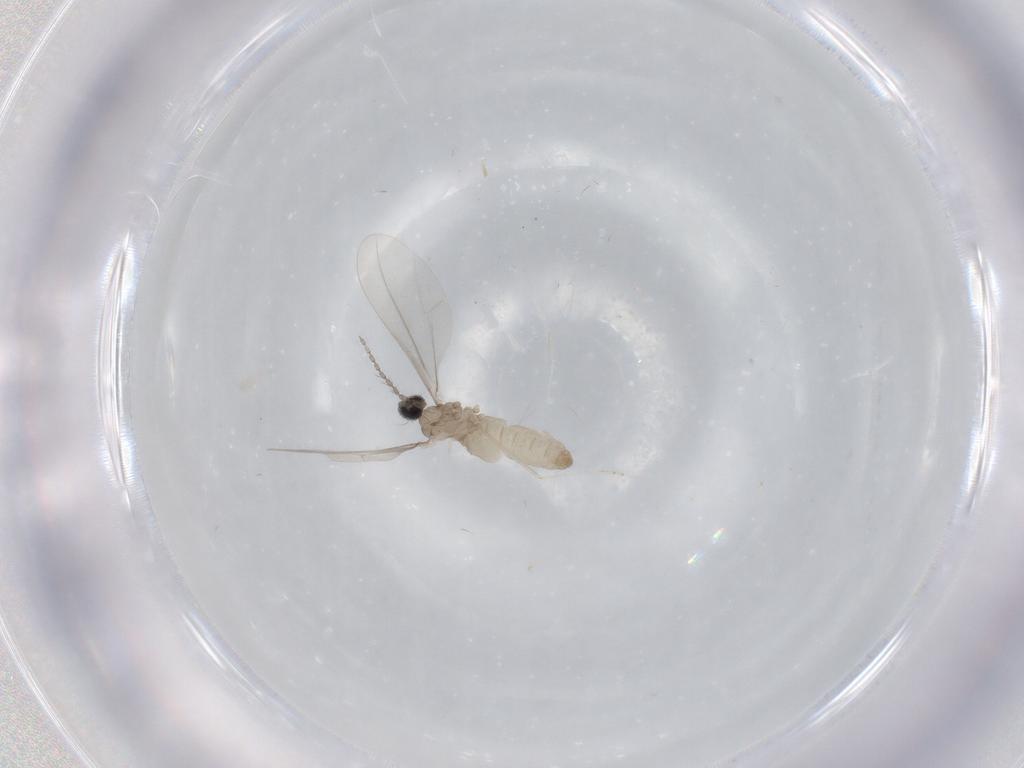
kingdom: Animalia
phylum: Arthropoda
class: Insecta
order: Diptera
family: Cecidomyiidae
